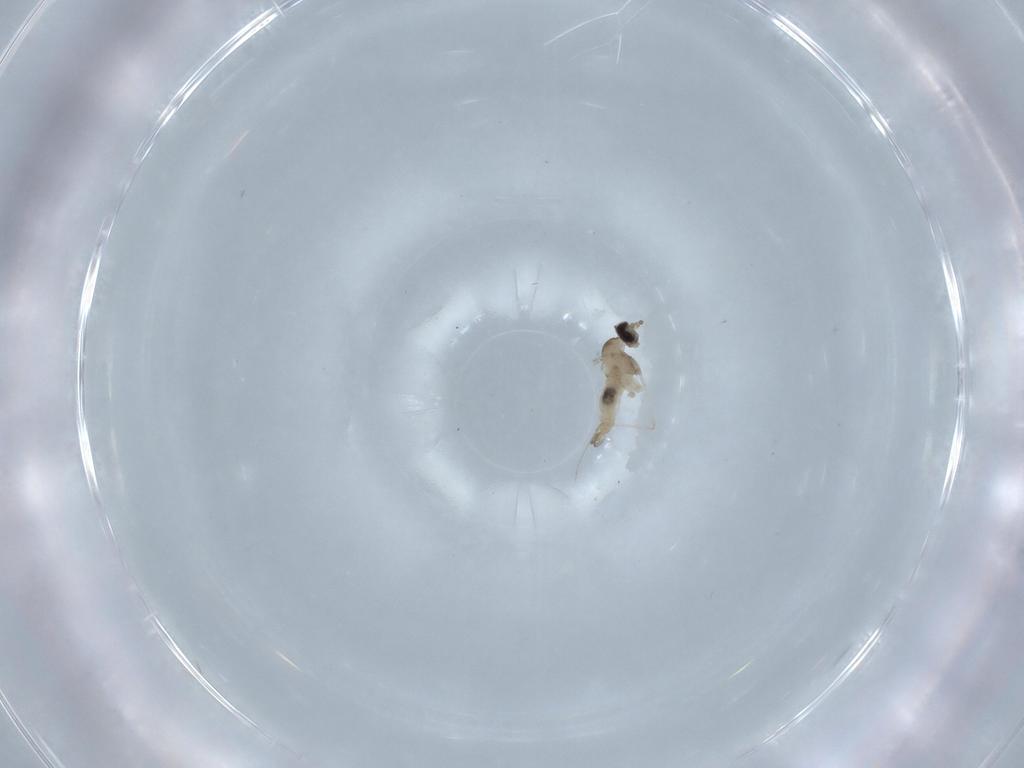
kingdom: Animalia
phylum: Arthropoda
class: Insecta
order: Diptera
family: Cecidomyiidae
